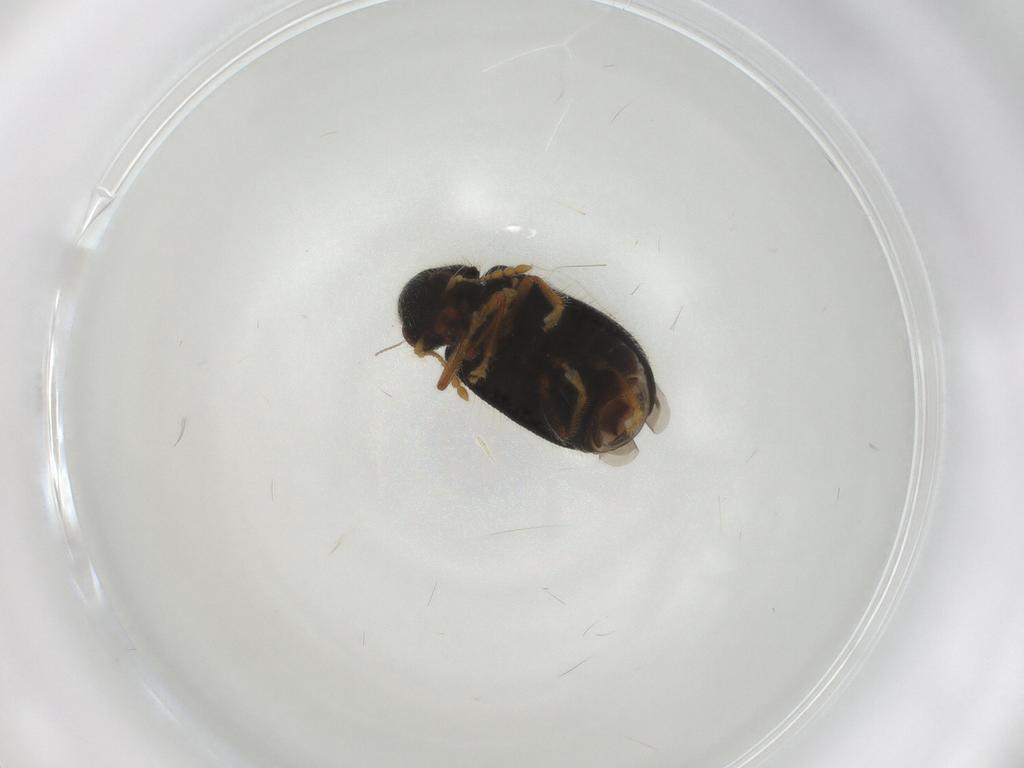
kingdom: Animalia
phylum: Arthropoda
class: Insecta
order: Coleoptera
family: Cleridae
